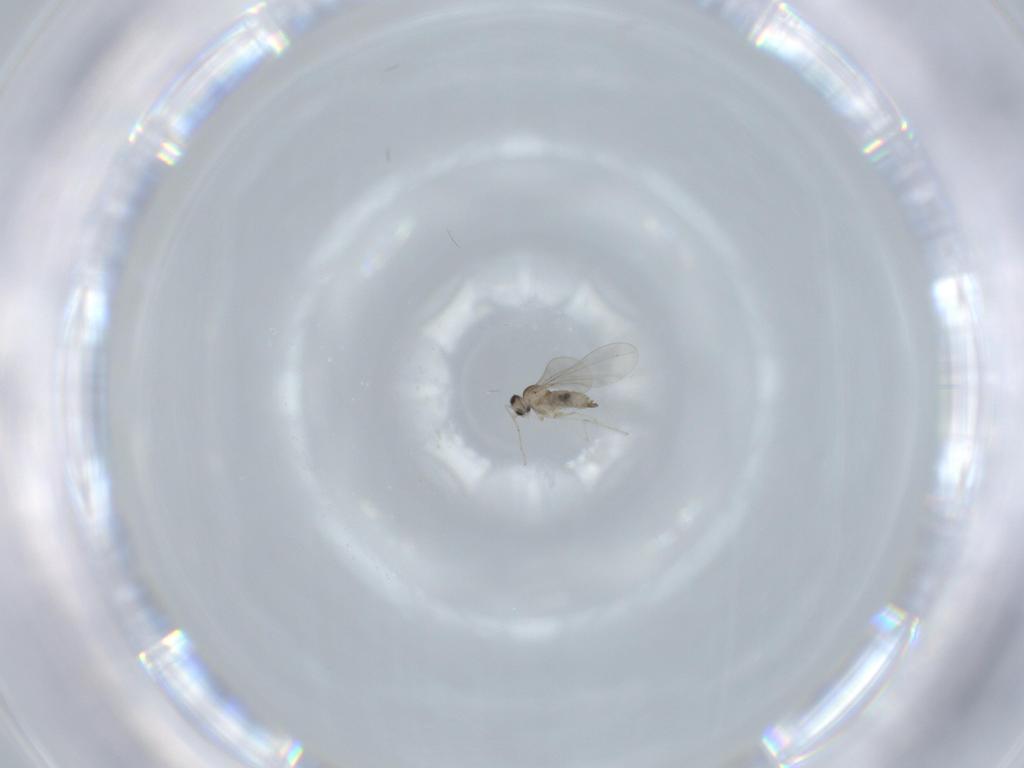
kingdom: Animalia
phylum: Arthropoda
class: Insecta
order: Diptera
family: Cecidomyiidae
